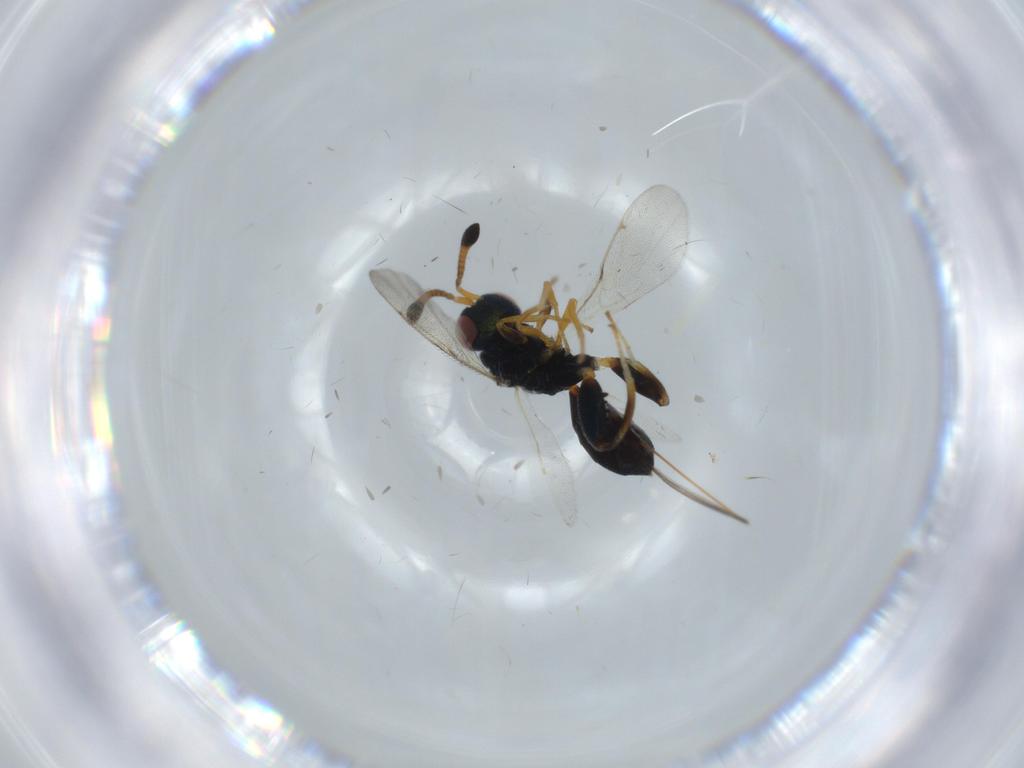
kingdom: Animalia
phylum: Arthropoda
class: Insecta
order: Hymenoptera
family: Torymidae
